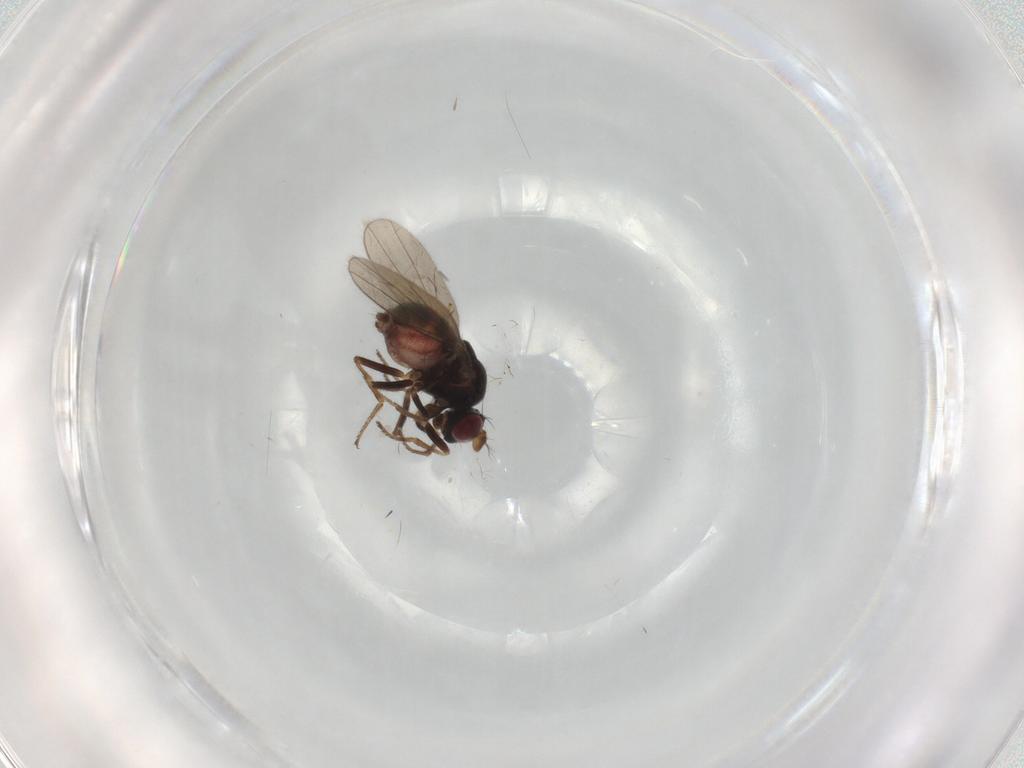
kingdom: Animalia
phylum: Arthropoda
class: Insecta
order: Diptera
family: Ephydridae
